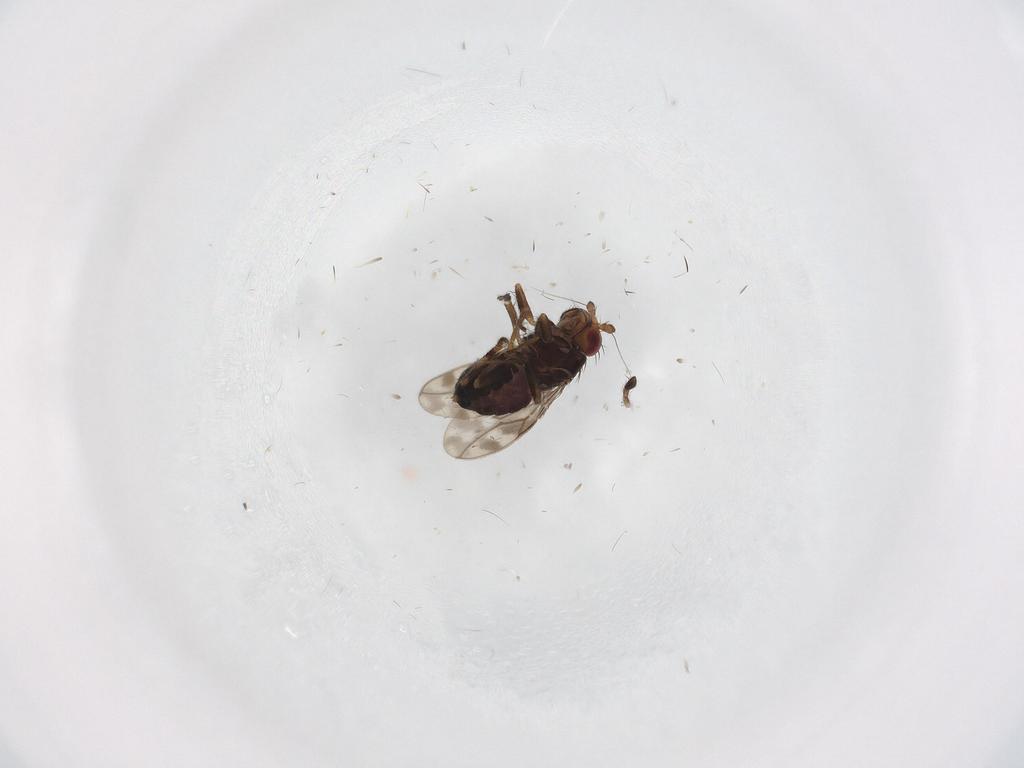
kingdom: Animalia
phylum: Arthropoda
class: Insecta
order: Diptera
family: Sphaeroceridae
